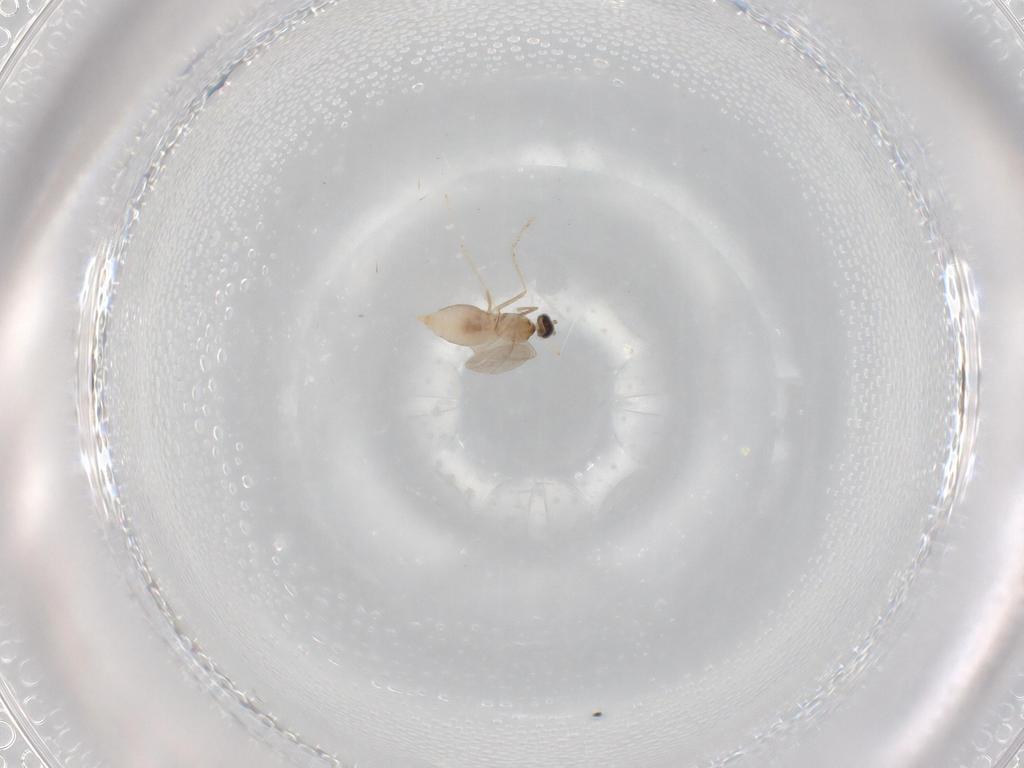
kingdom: Animalia
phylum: Arthropoda
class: Insecta
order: Diptera
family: Limoniidae
